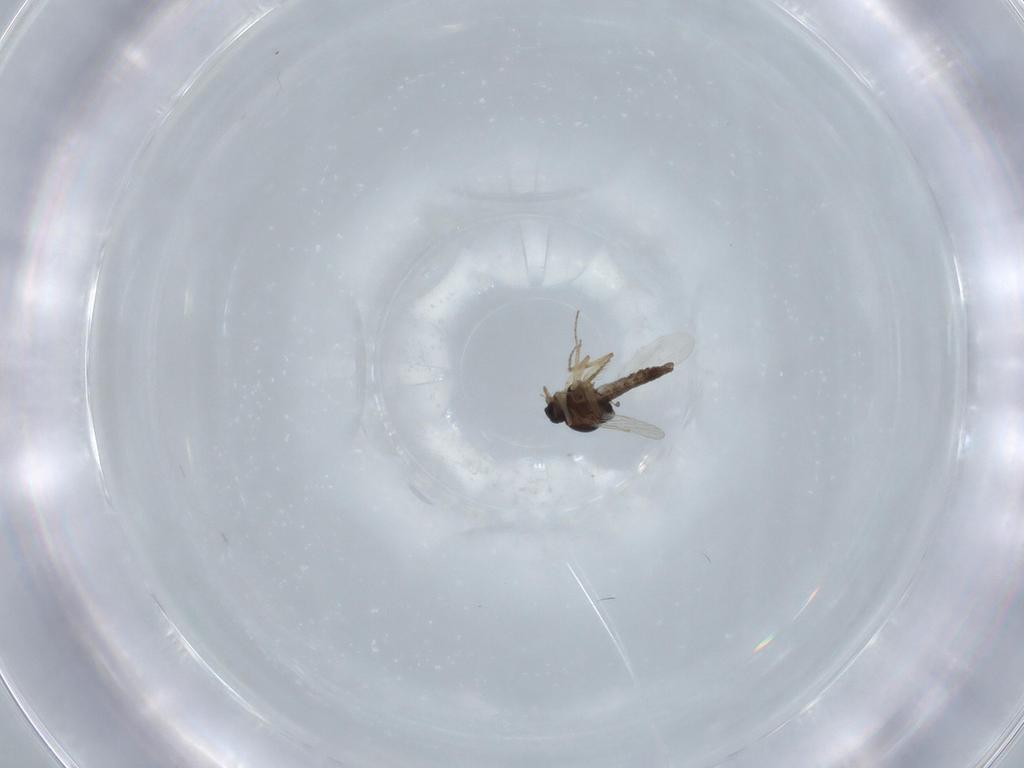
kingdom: Animalia
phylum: Arthropoda
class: Insecta
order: Diptera
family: Ceratopogonidae
